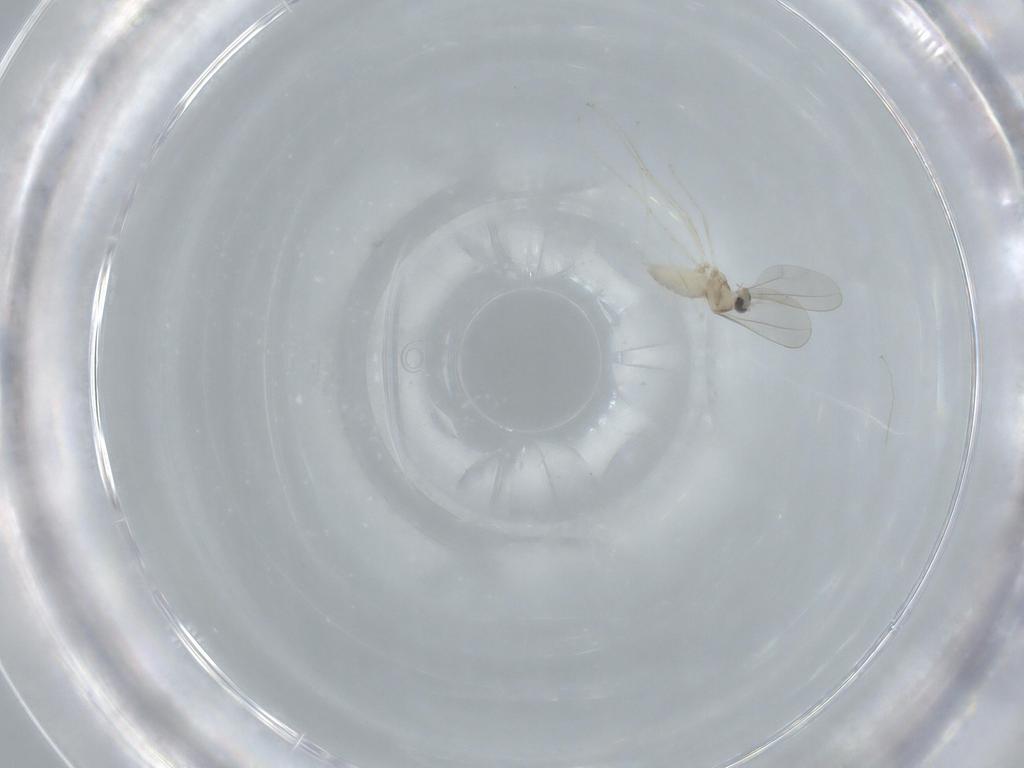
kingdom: Animalia
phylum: Arthropoda
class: Insecta
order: Diptera
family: Cecidomyiidae
